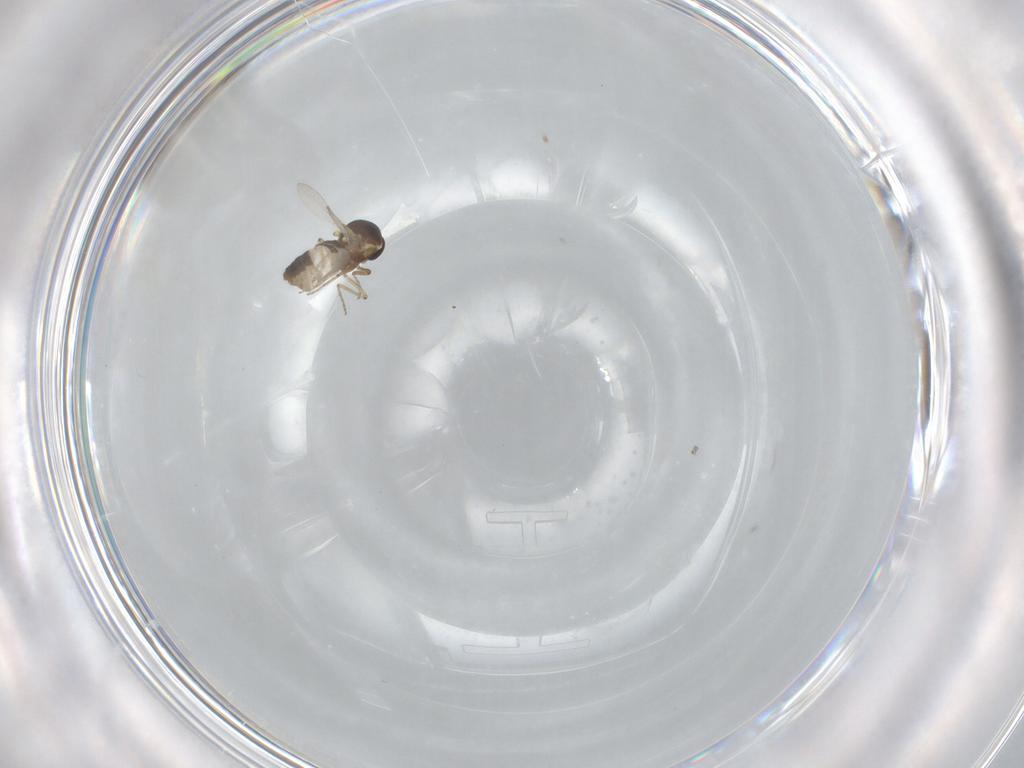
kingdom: Animalia
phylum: Arthropoda
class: Insecta
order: Diptera
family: Ceratopogonidae
